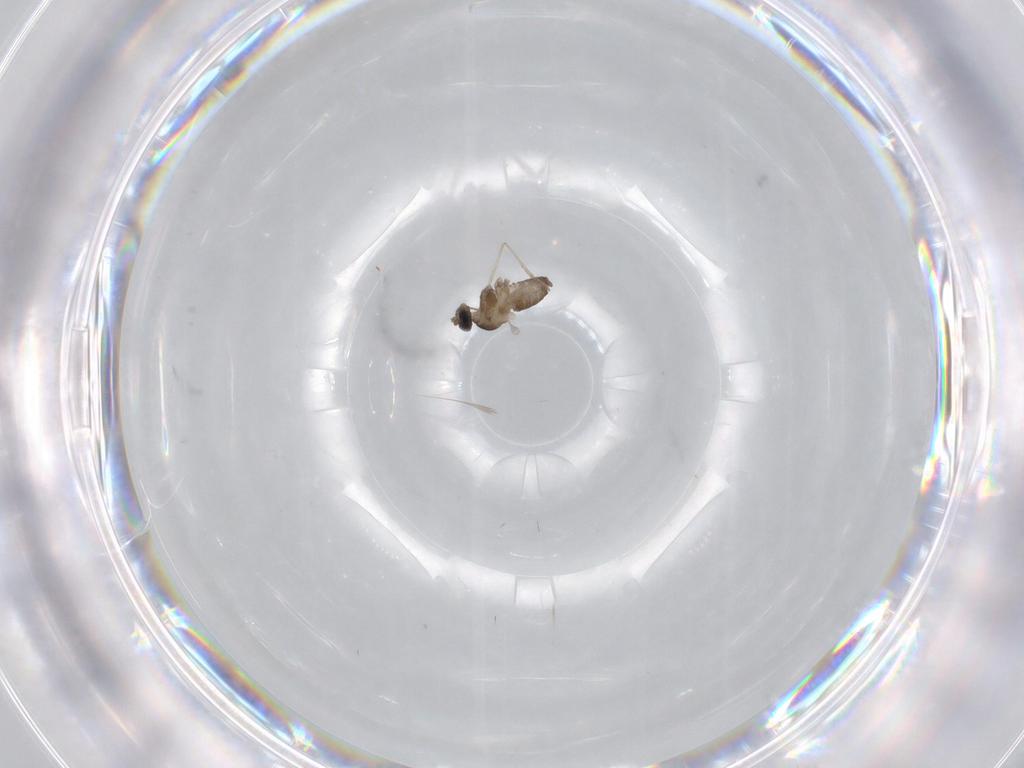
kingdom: Animalia
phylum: Arthropoda
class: Insecta
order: Diptera
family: Cecidomyiidae
